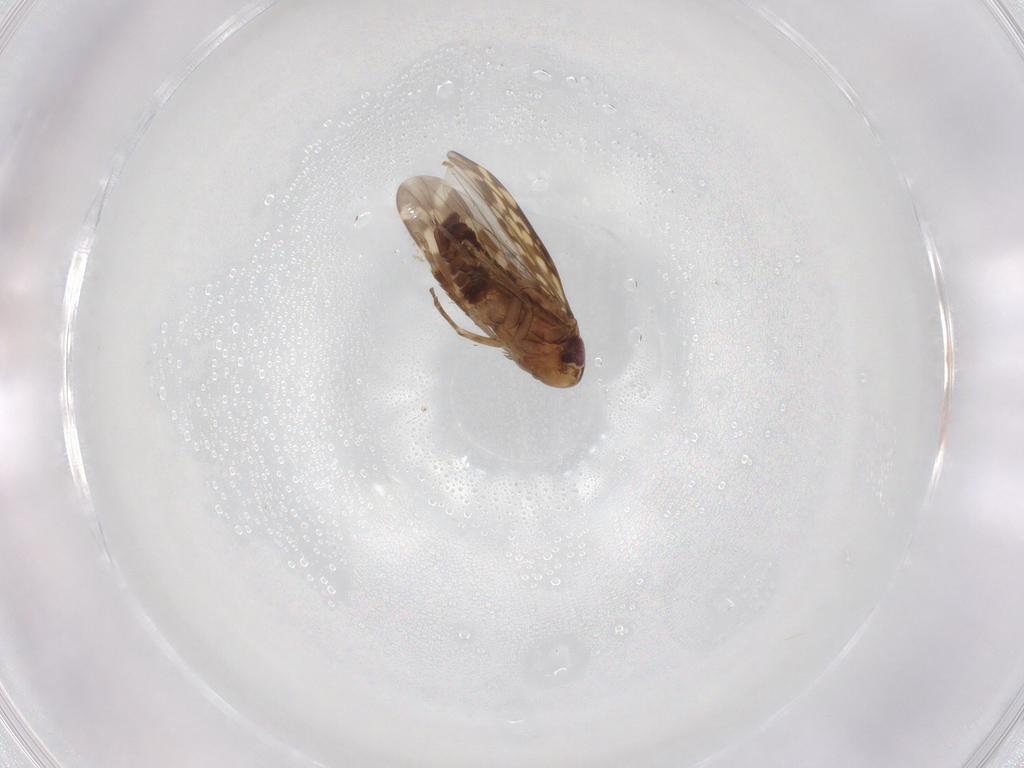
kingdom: Animalia
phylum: Arthropoda
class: Insecta
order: Hemiptera
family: Cicadellidae
